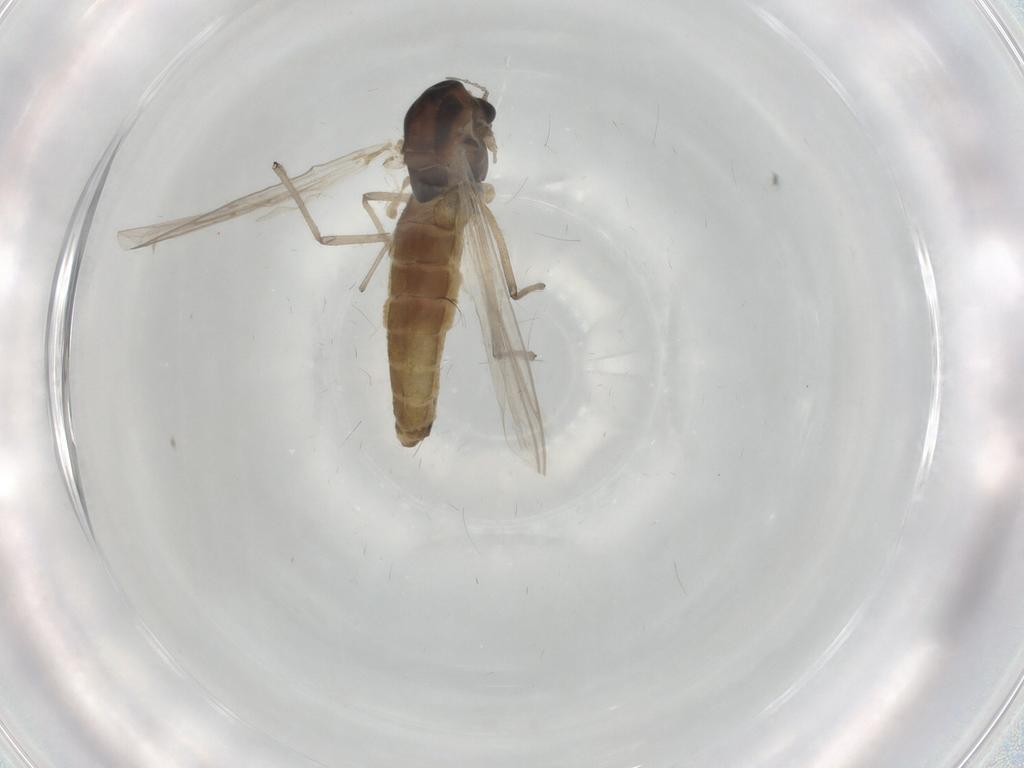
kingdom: Animalia
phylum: Arthropoda
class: Insecta
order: Diptera
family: Chironomidae
